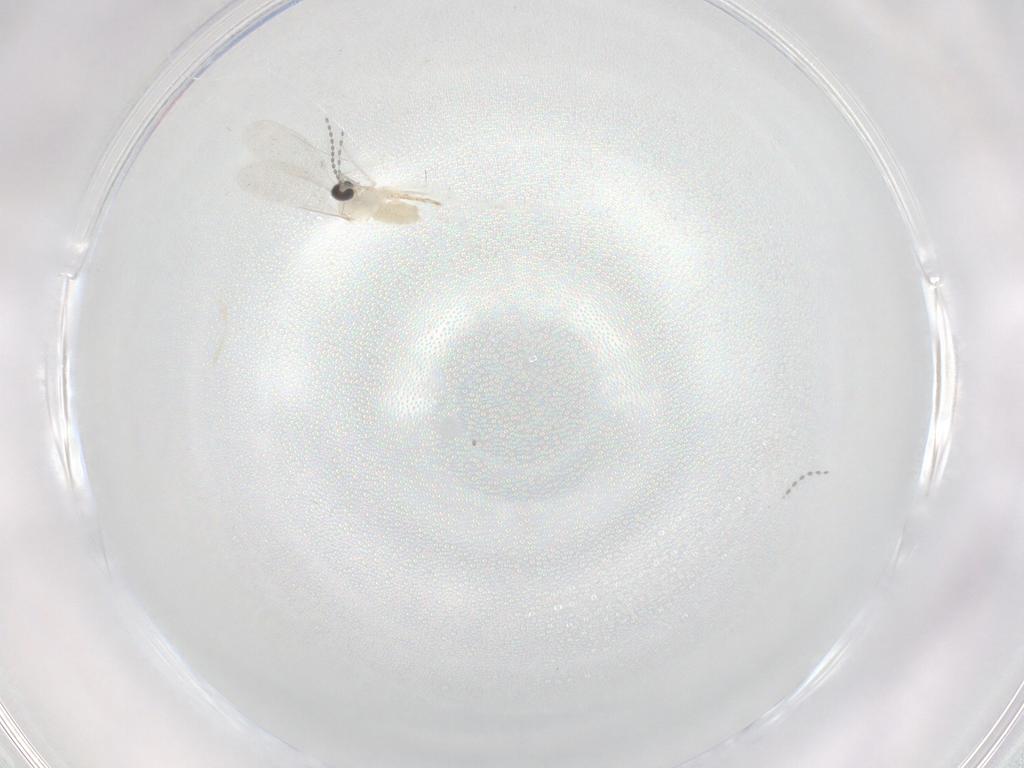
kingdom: Animalia
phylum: Arthropoda
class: Insecta
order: Diptera
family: Cecidomyiidae
